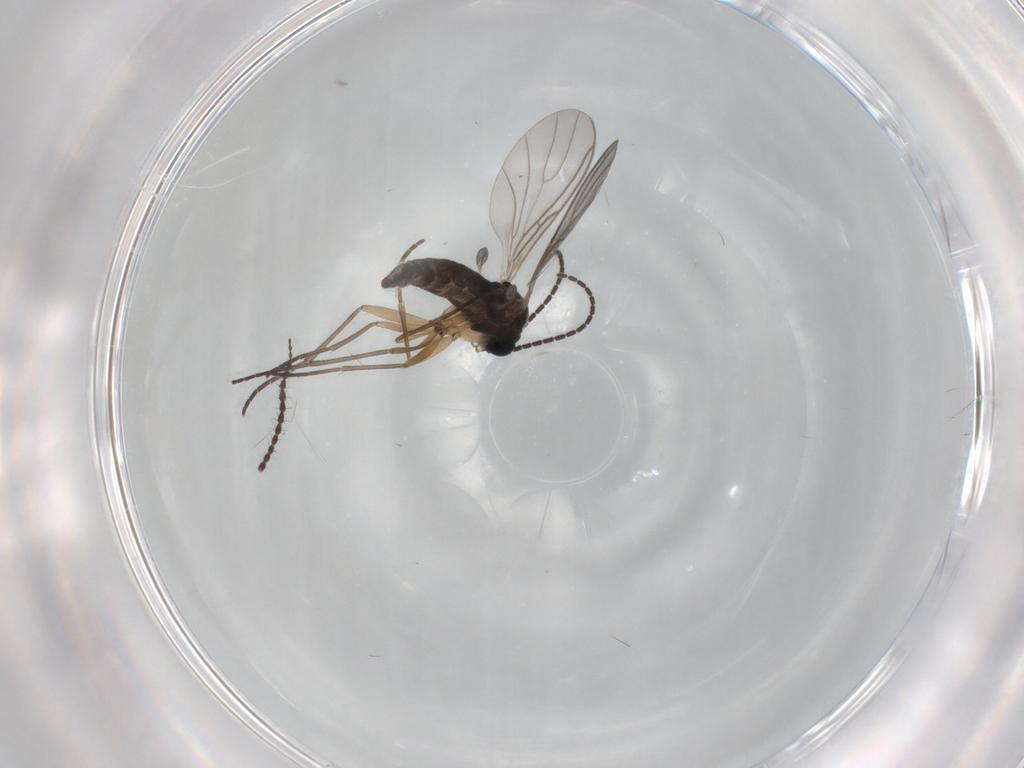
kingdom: Animalia
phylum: Arthropoda
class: Insecta
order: Diptera
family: Sciaridae
